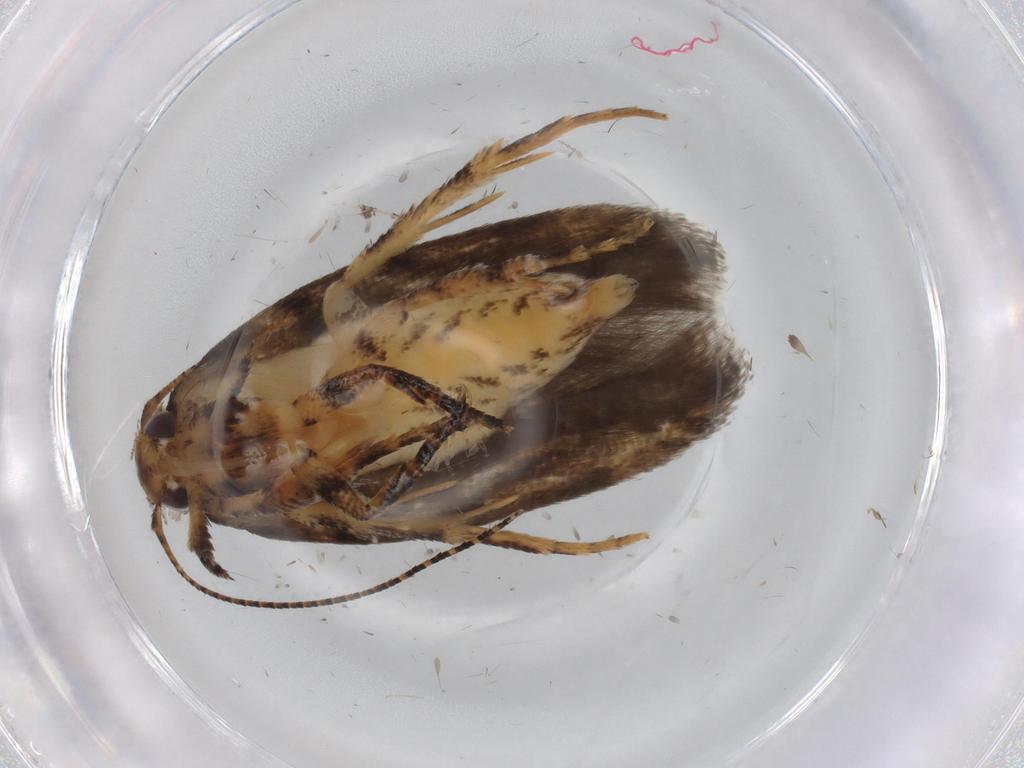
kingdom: Animalia
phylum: Arthropoda
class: Insecta
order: Lepidoptera
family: Gelechiidae
